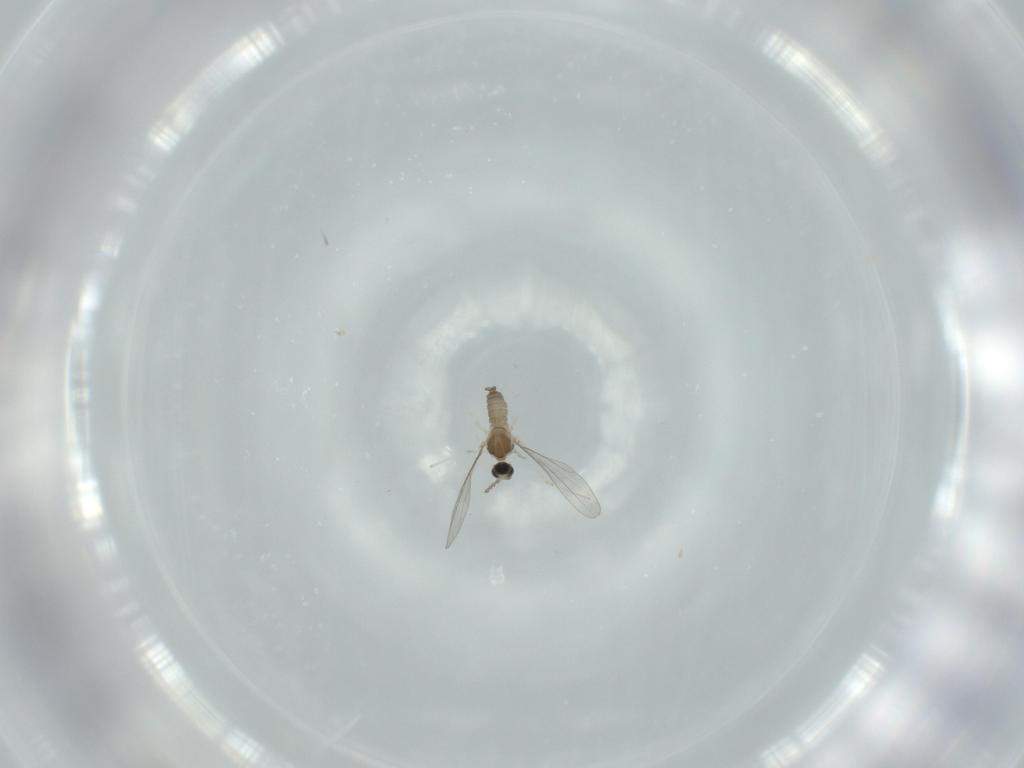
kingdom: Animalia
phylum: Arthropoda
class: Insecta
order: Diptera
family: Cecidomyiidae
